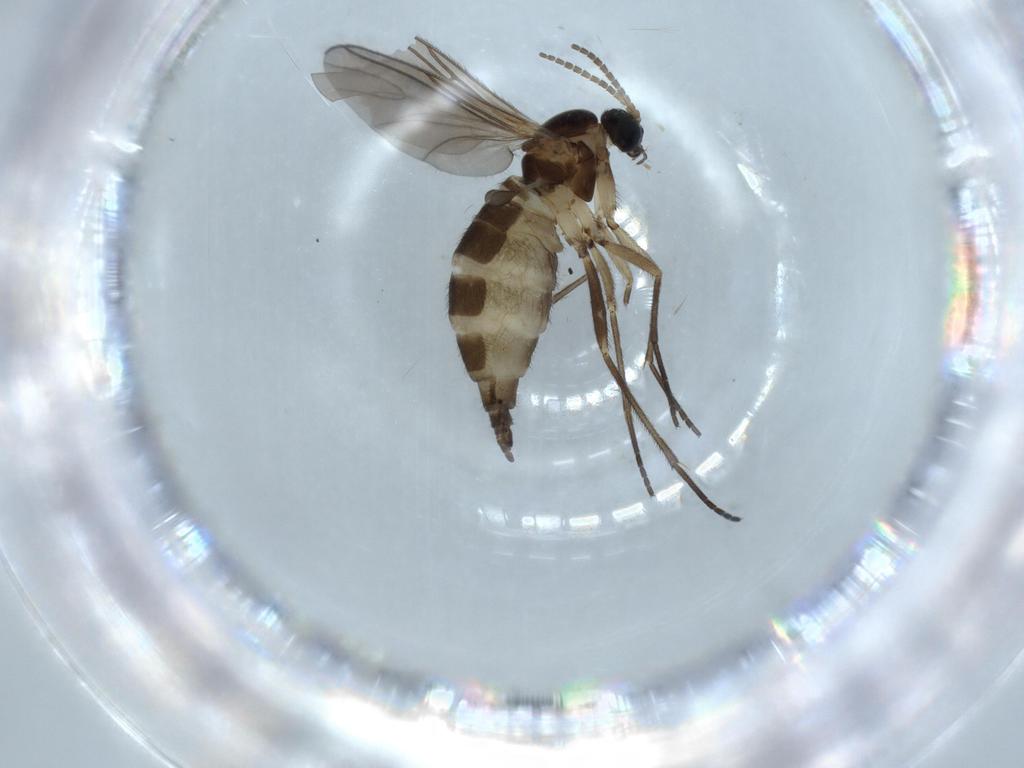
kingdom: Animalia
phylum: Arthropoda
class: Insecta
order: Diptera
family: Sciaridae
